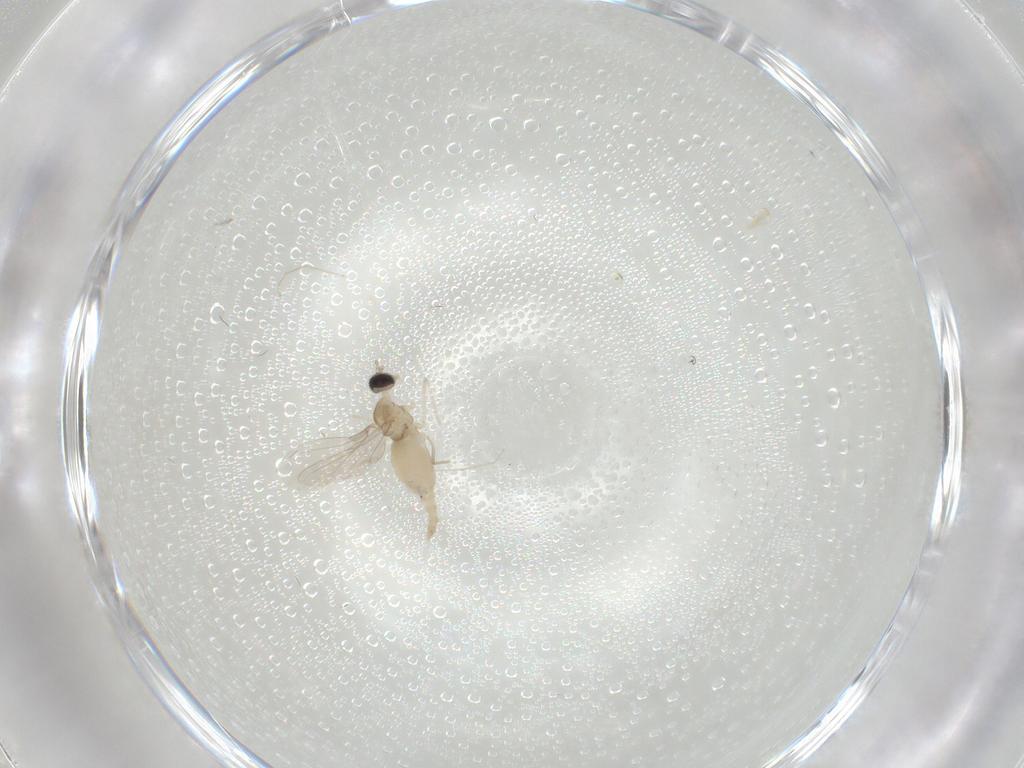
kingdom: Animalia
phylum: Arthropoda
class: Insecta
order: Diptera
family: Cecidomyiidae
